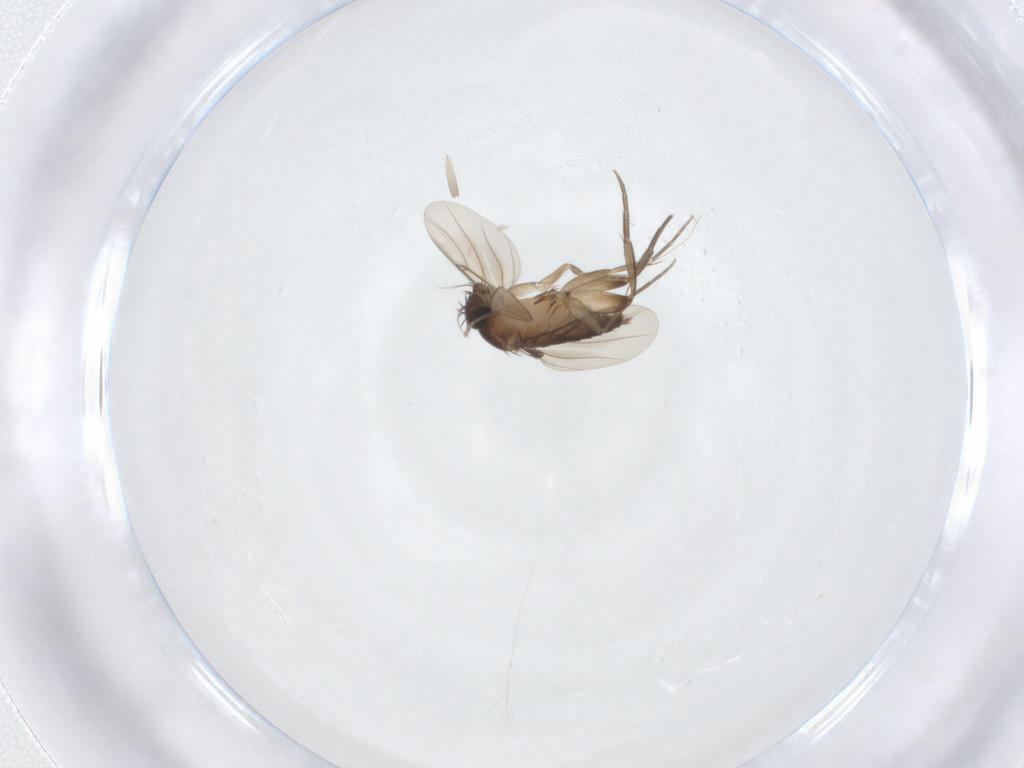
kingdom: Animalia
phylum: Arthropoda
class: Insecta
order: Diptera
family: Phoridae
